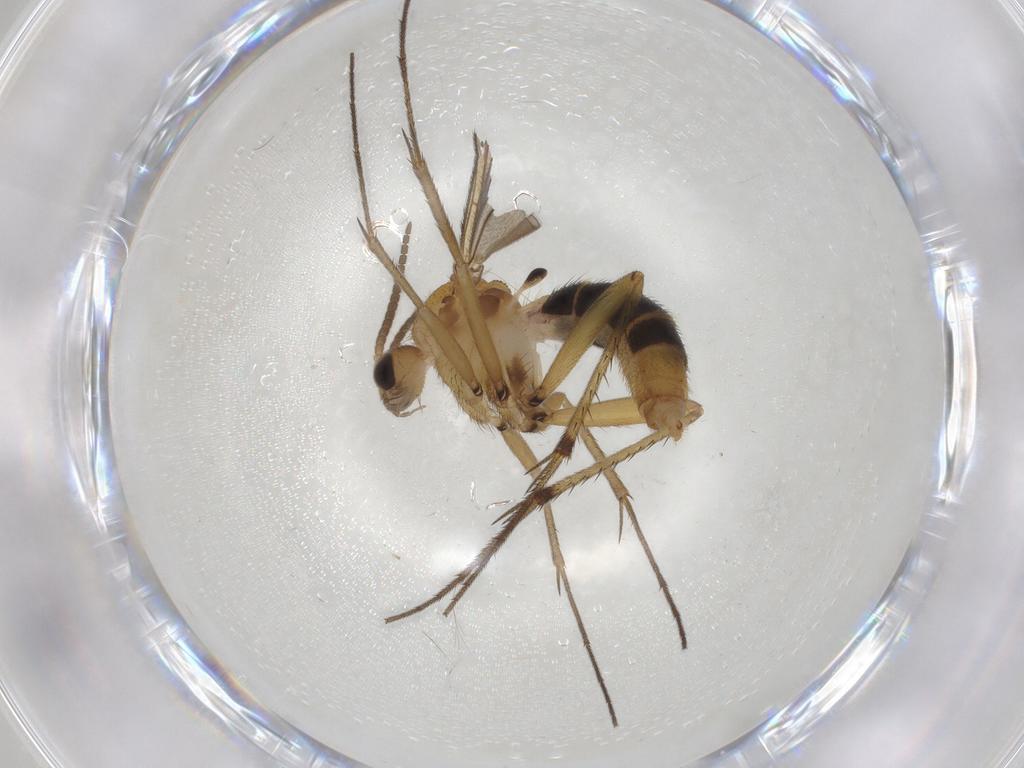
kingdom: Animalia
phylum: Arthropoda
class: Insecta
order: Diptera
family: Mycetophilidae
